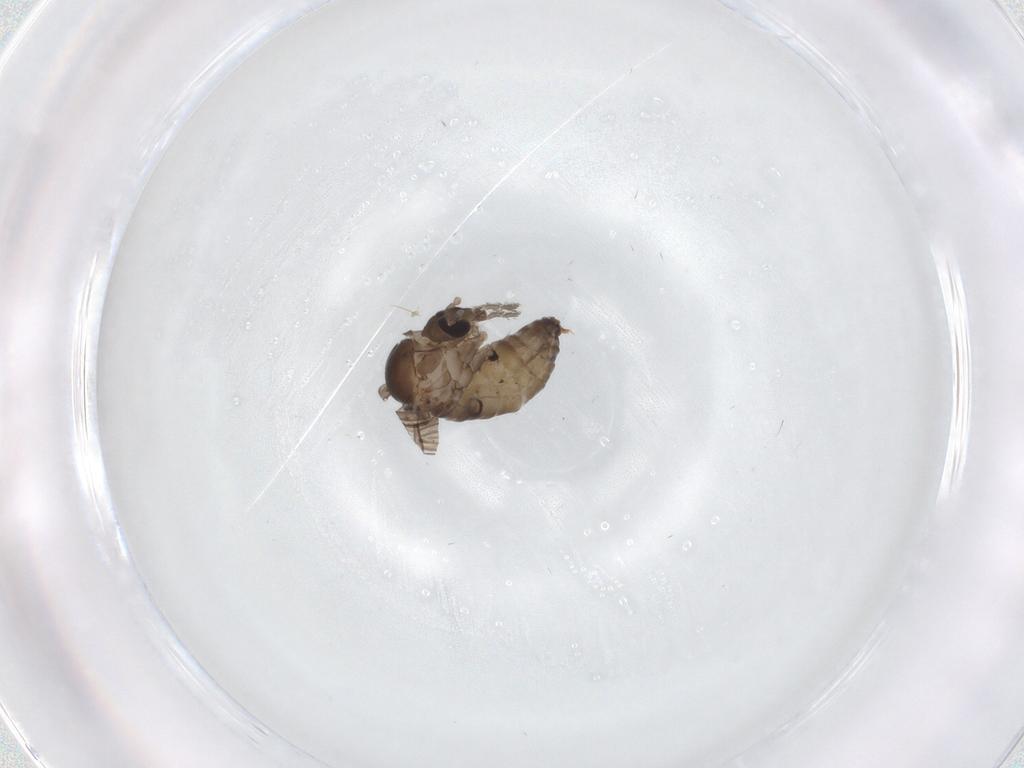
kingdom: Animalia
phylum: Arthropoda
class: Insecta
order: Diptera
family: Psychodidae
